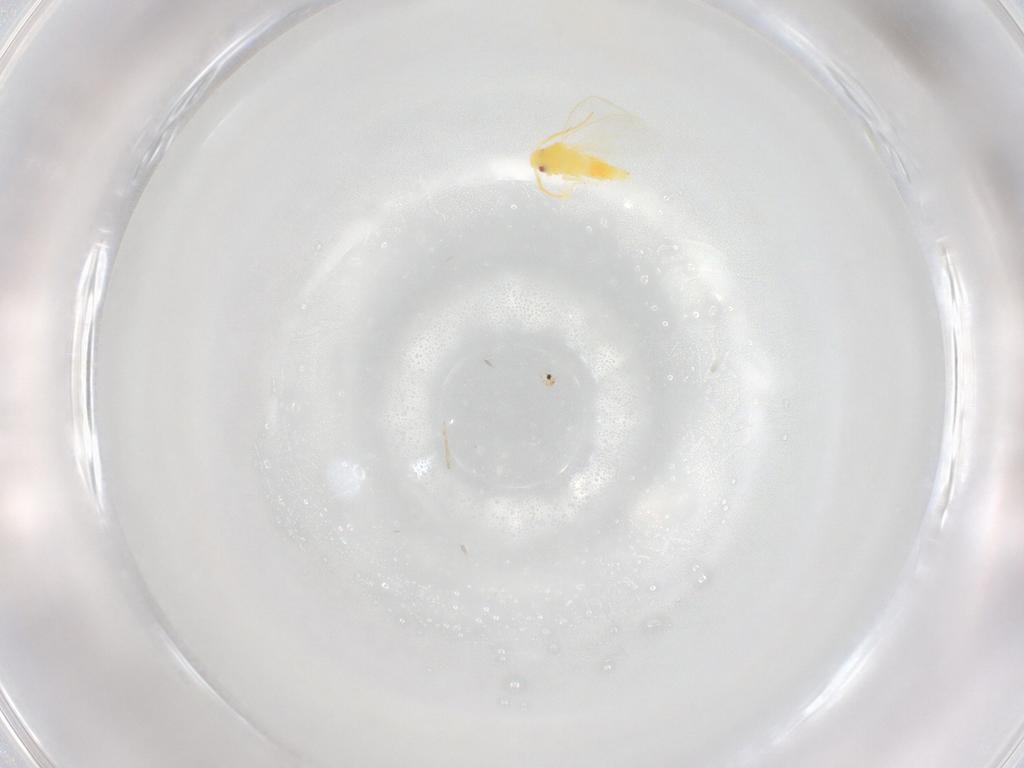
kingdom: Animalia
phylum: Arthropoda
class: Insecta
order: Hemiptera
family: Aleyrodidae
